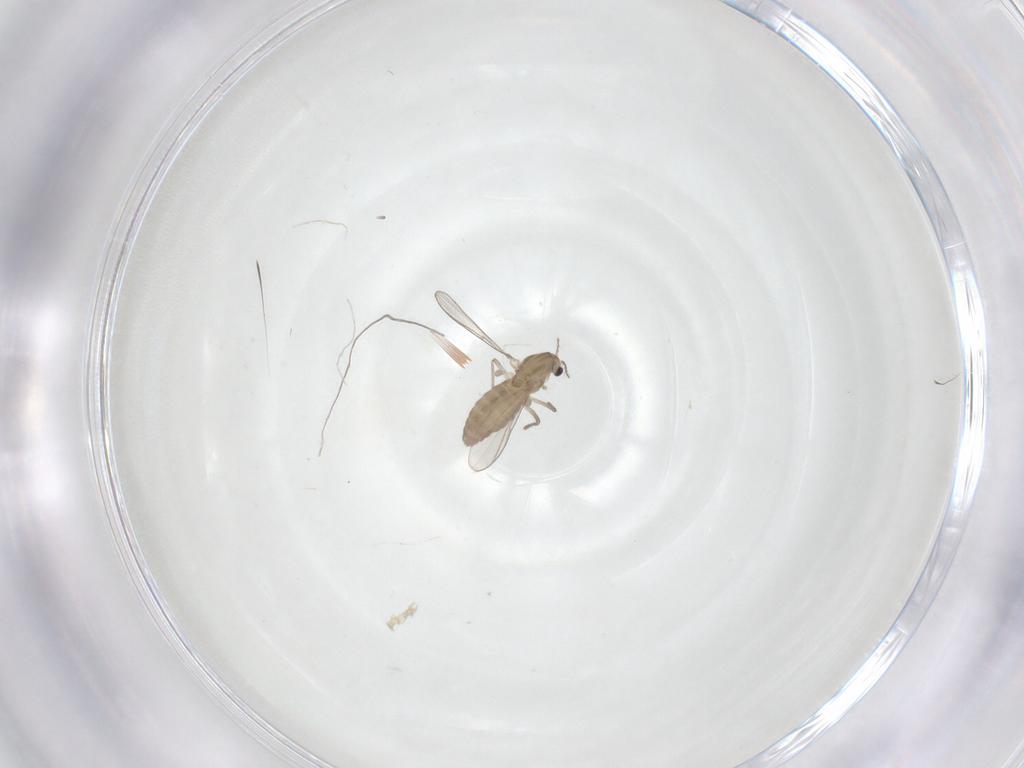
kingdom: Animalia
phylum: Arthropoda
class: Insecta
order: Diptera
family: Chironomidae
